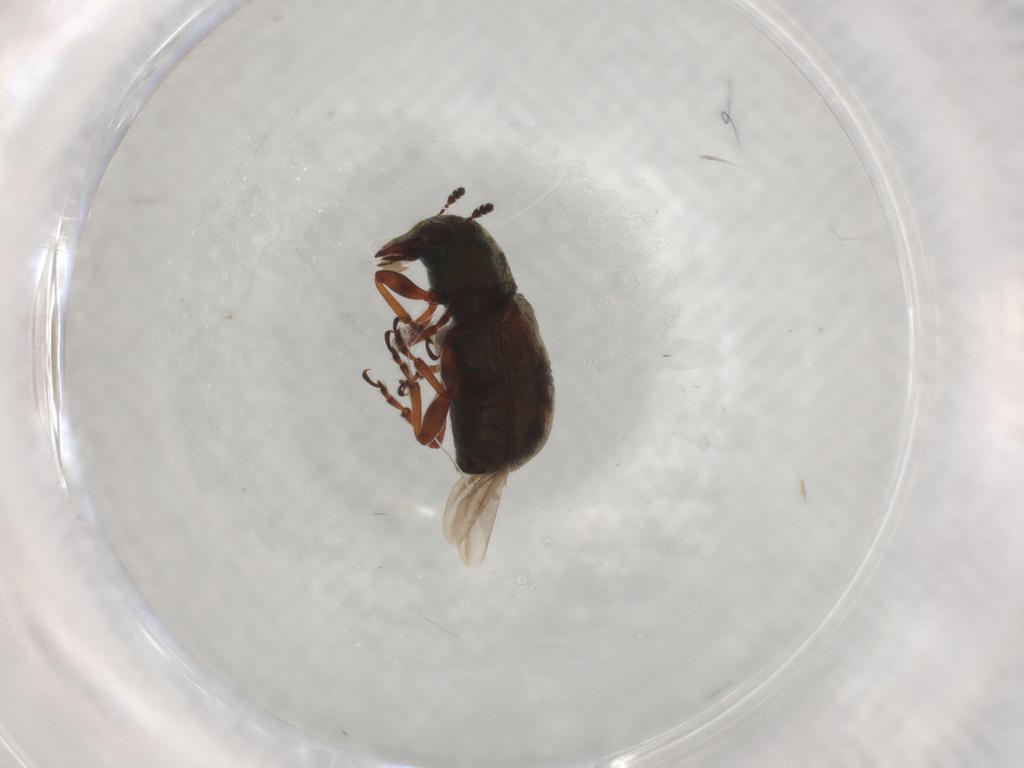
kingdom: Animalia
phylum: Arthropoda
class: Insecta
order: Coleoptera
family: Anthribidae
